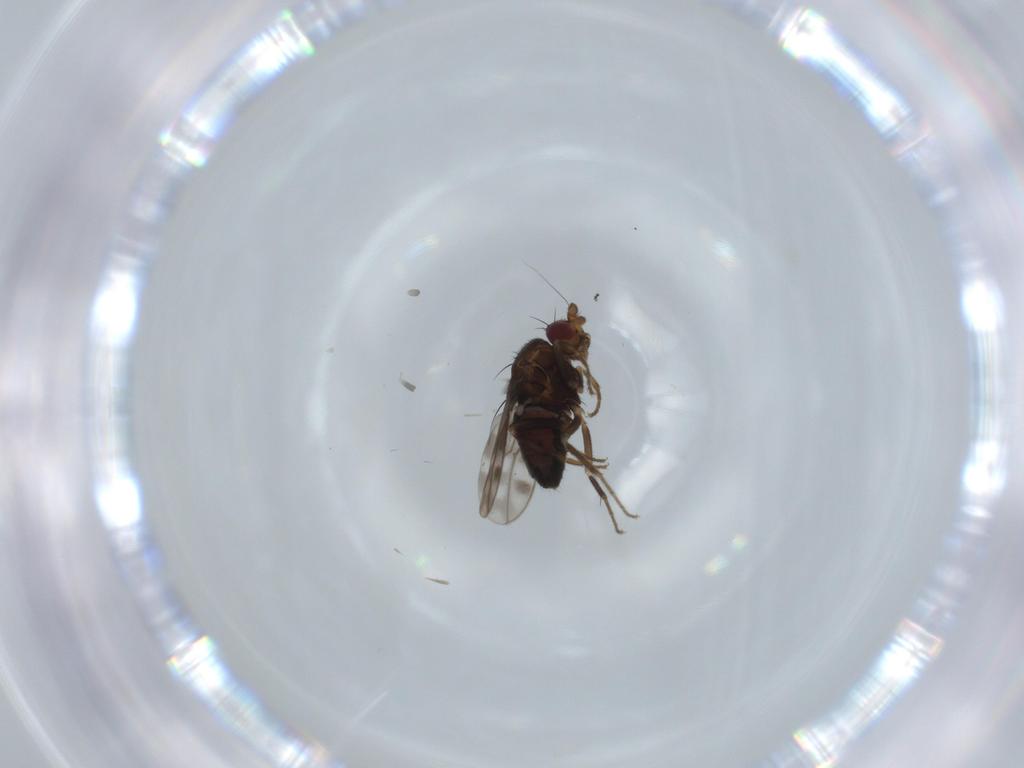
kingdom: Animalia
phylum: Arthropoda
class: Insecta
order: Diptera
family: Sphaeroceridae
